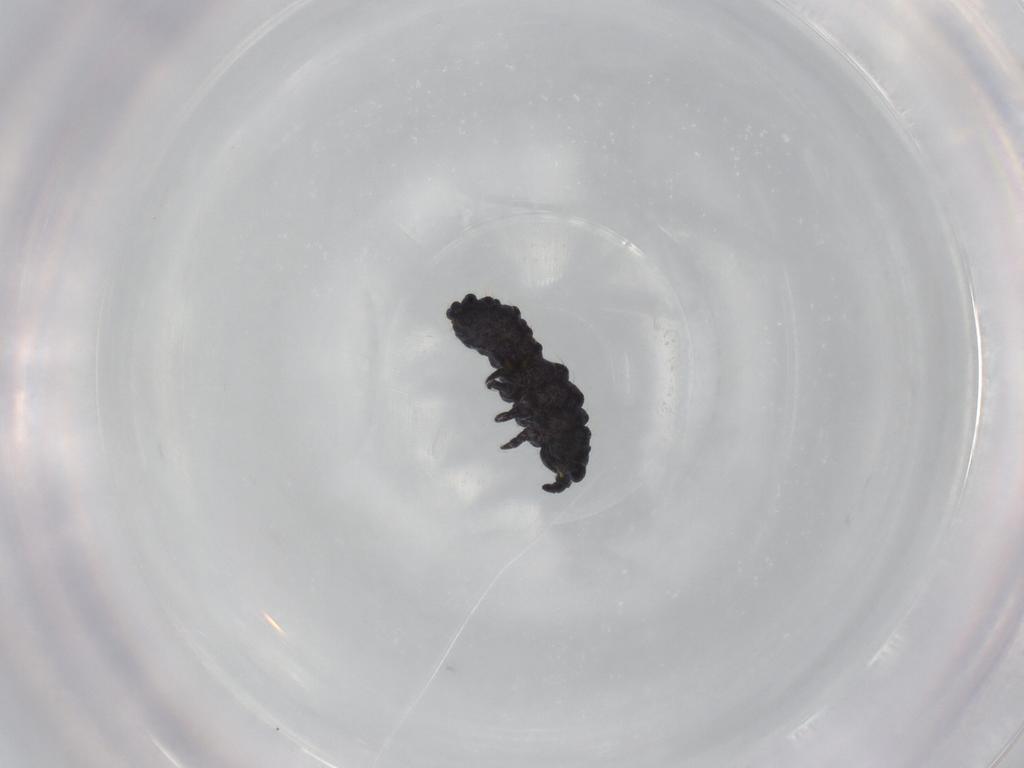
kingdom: Animalia
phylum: Arthropoda
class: Collembola
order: Poduromorpha
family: Neanuridae
